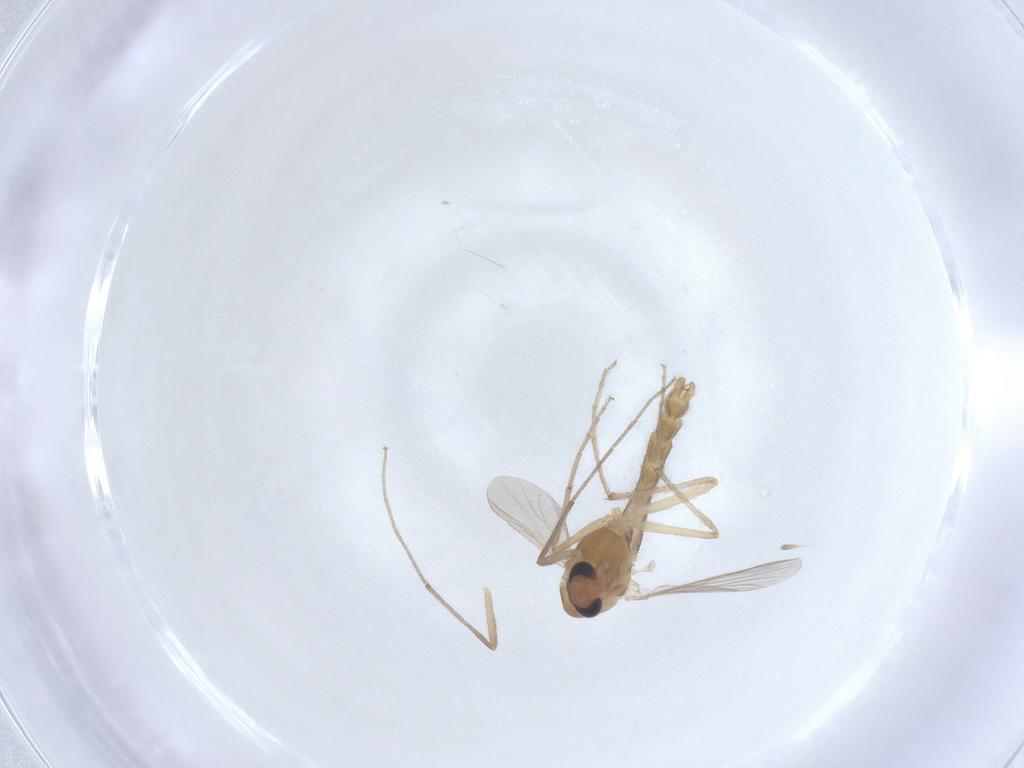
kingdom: Animalia
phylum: Arthropoda
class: Insecta
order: Diptera
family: Chironomidae
